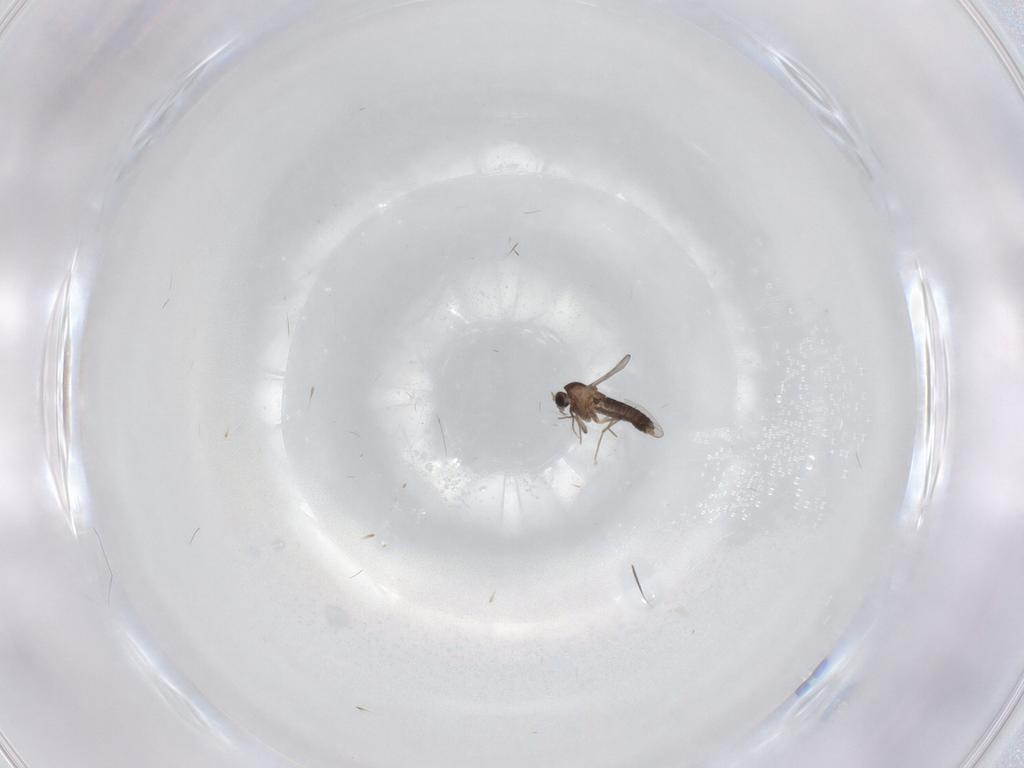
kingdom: Animalia
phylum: Arthropoda
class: Insecta
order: Diptera
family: Chironomidae
